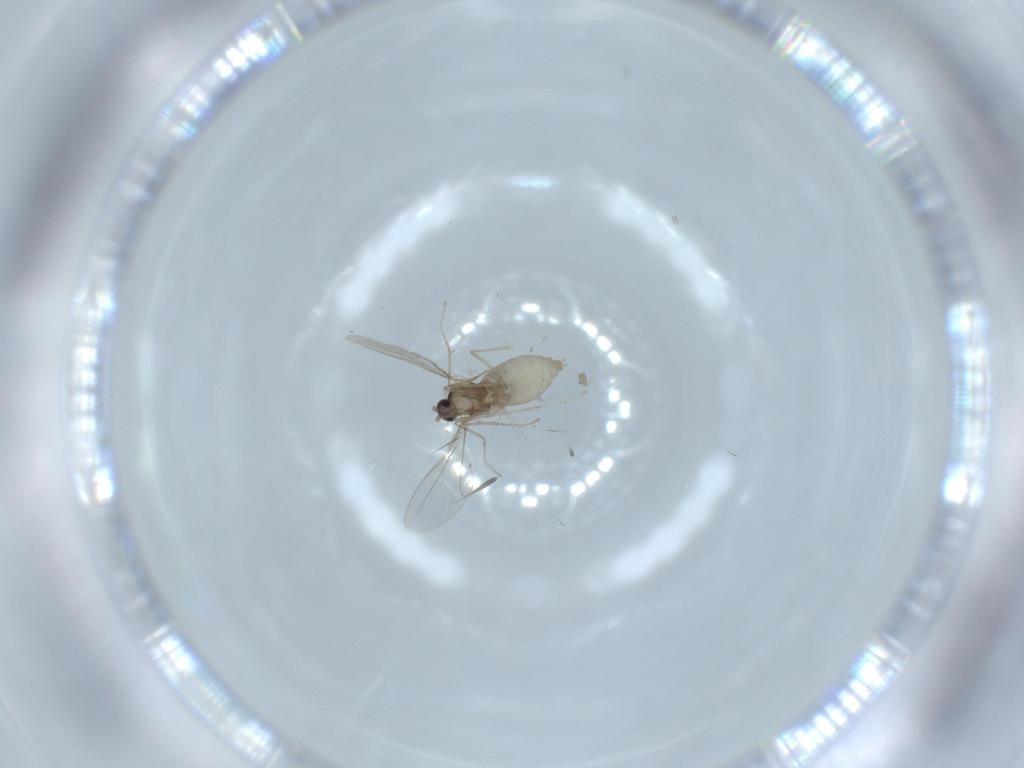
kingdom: Animalia
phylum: Arthropoda
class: Insecta
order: Diptera
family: Cecidomyiidae
